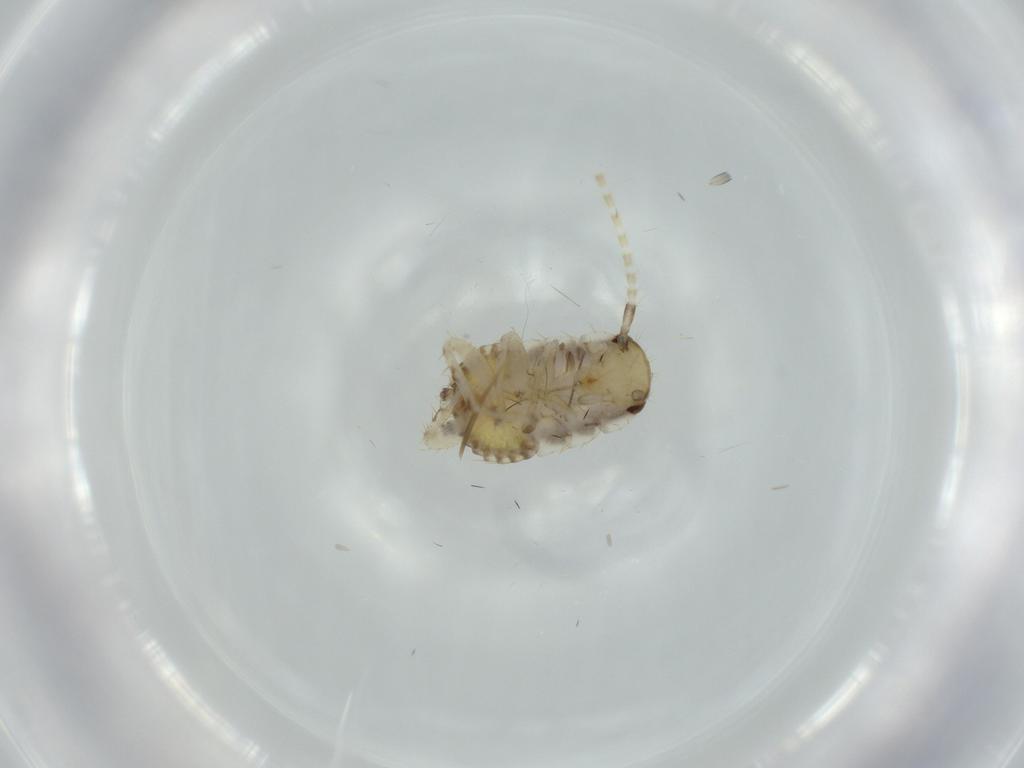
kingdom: Animalia
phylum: Arthropoda
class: Insecta
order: Blattodea
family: Ectobiidae
